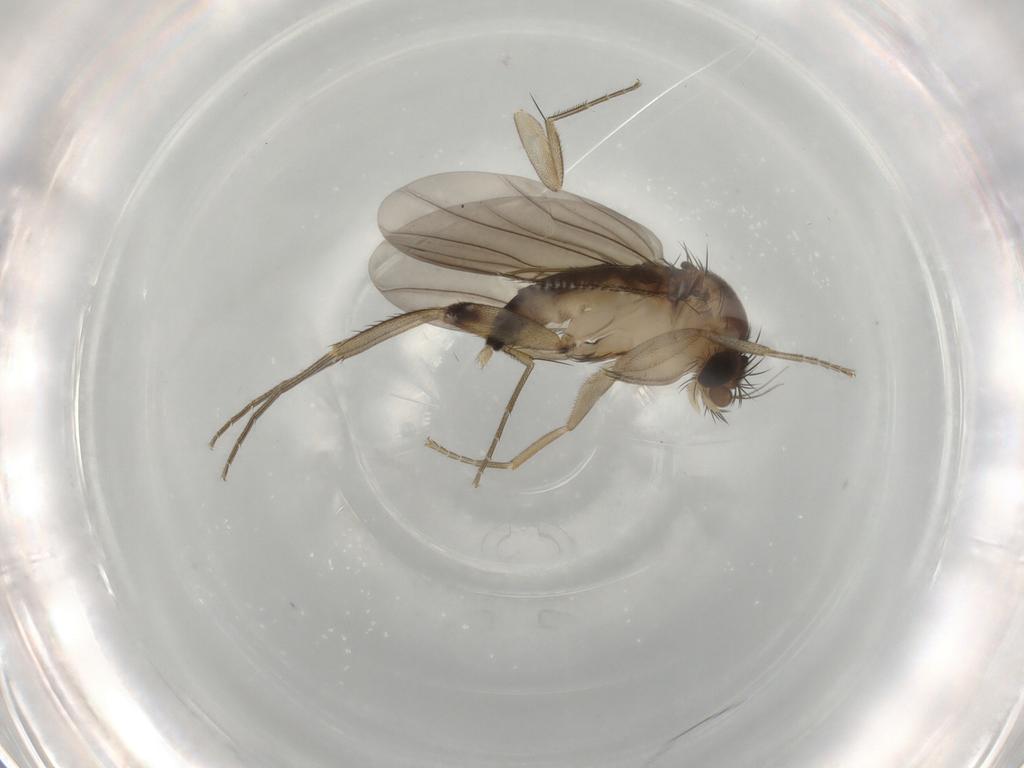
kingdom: Animalia
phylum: Arthropoda
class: Insecta
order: Diptera
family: Phoridae
